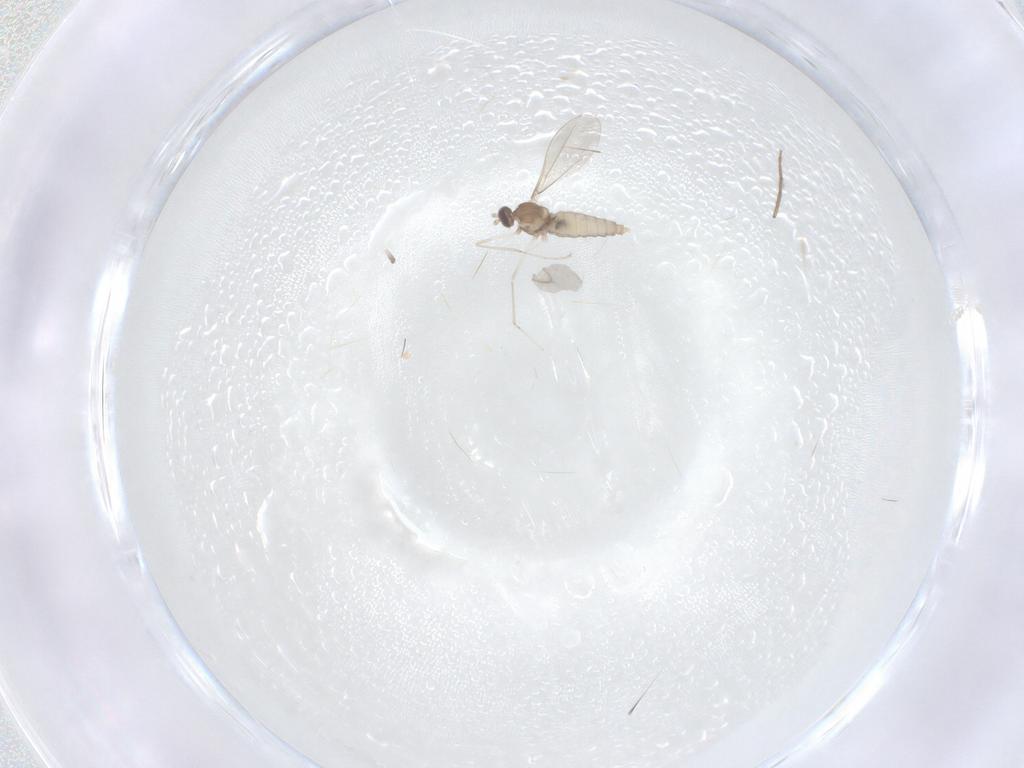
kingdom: Animalia
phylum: Arthropoda
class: Insecta
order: Diptera
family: Cecidomyiidae
